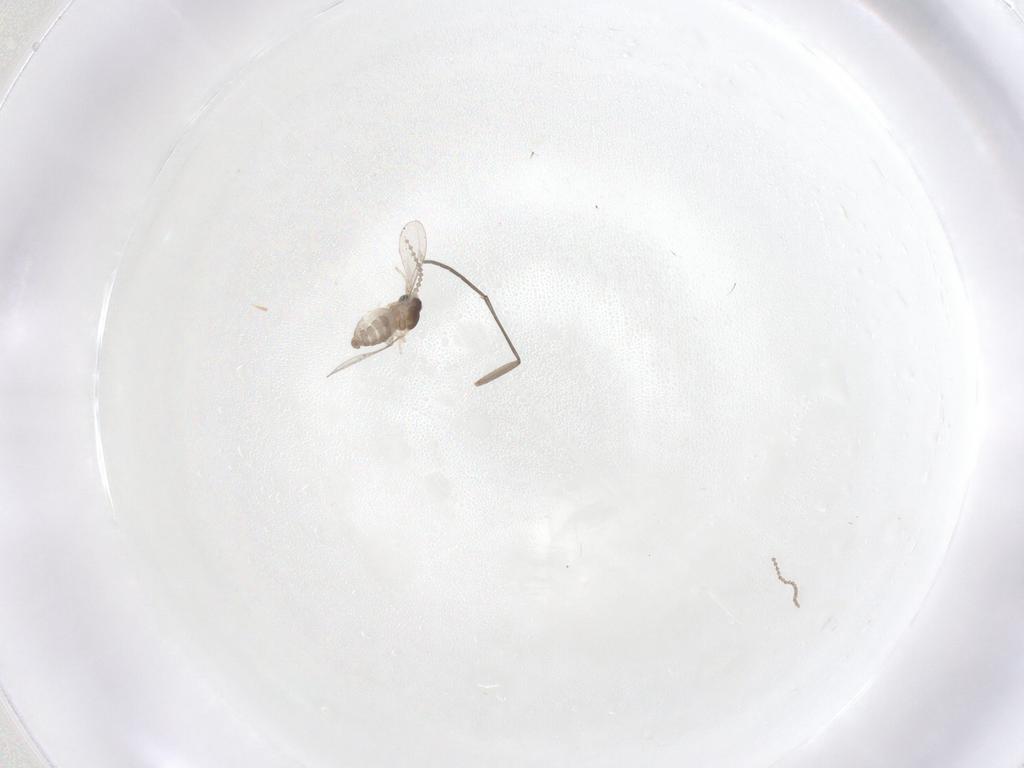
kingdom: Animalia
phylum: Arthropoda
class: Insecta
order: Diptera
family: Cecidomyiidae
